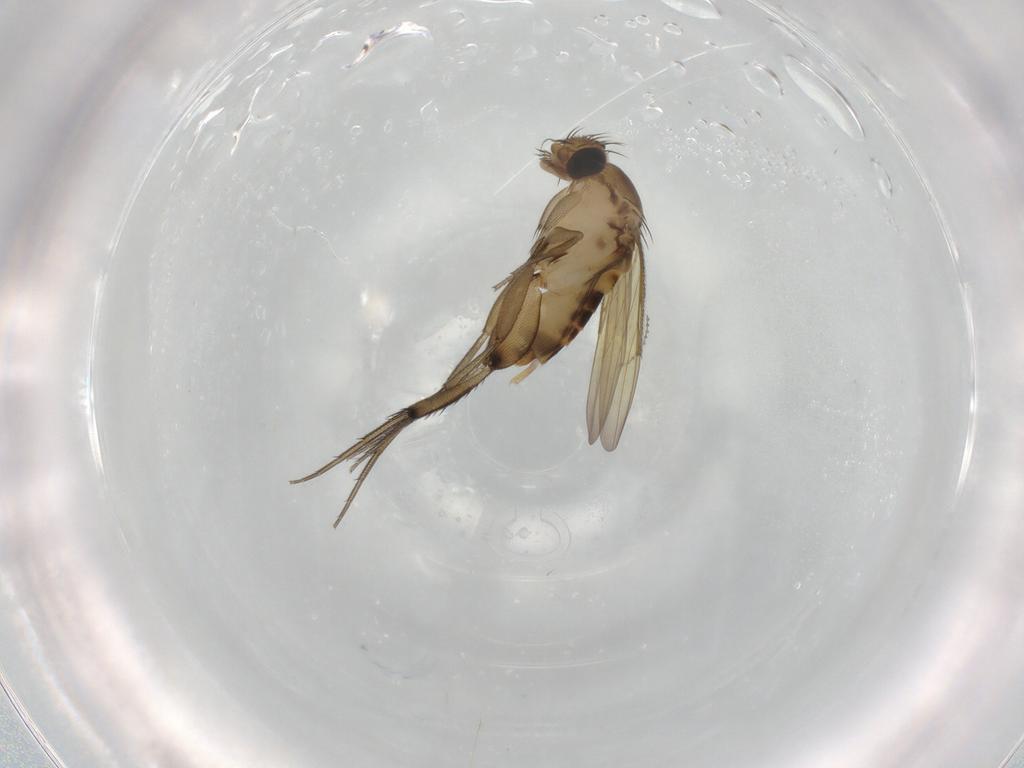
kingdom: Animalia
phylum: Arthropoda
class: Insecta
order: Diptera
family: Phoridae
